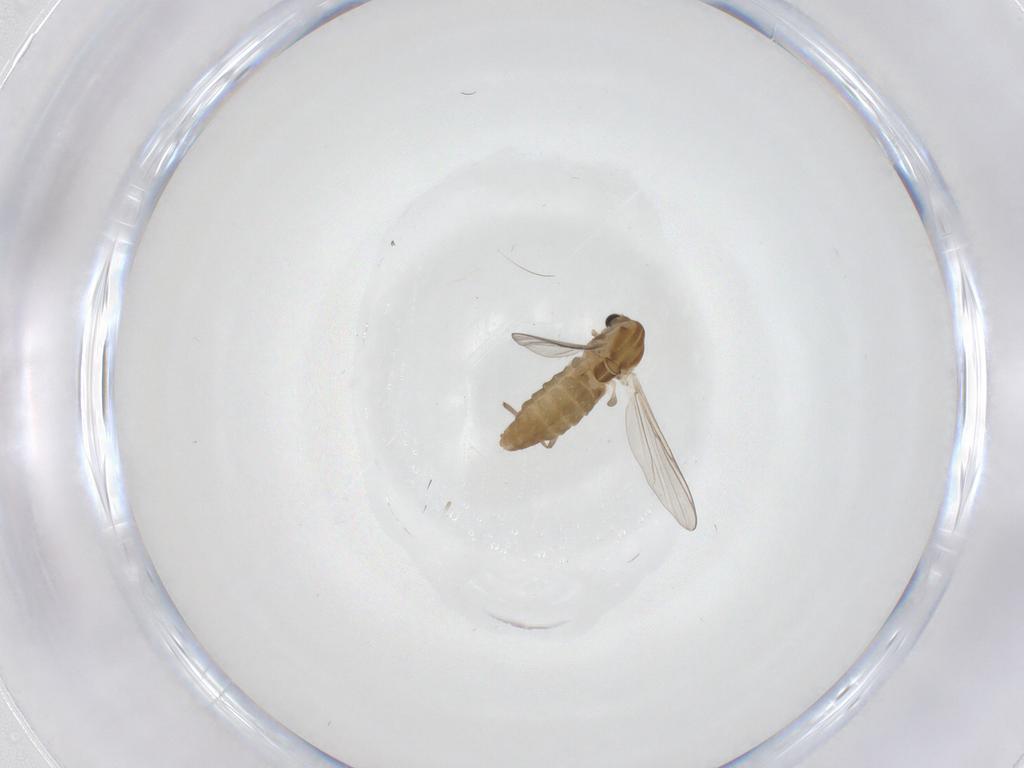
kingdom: Animalia
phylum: Arthropoda
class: Insecta
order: Diptera
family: Chironomidae
